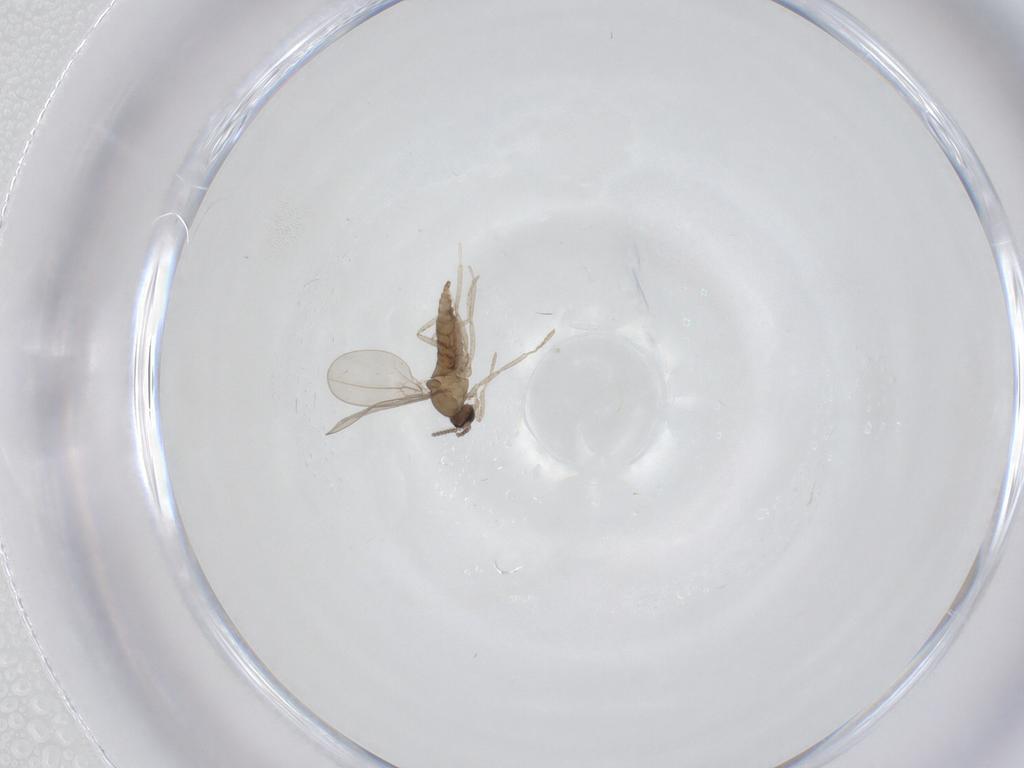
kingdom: Animalia
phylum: Arthropoda
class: Insecta
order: Diptera
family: Cecidomyiidae
